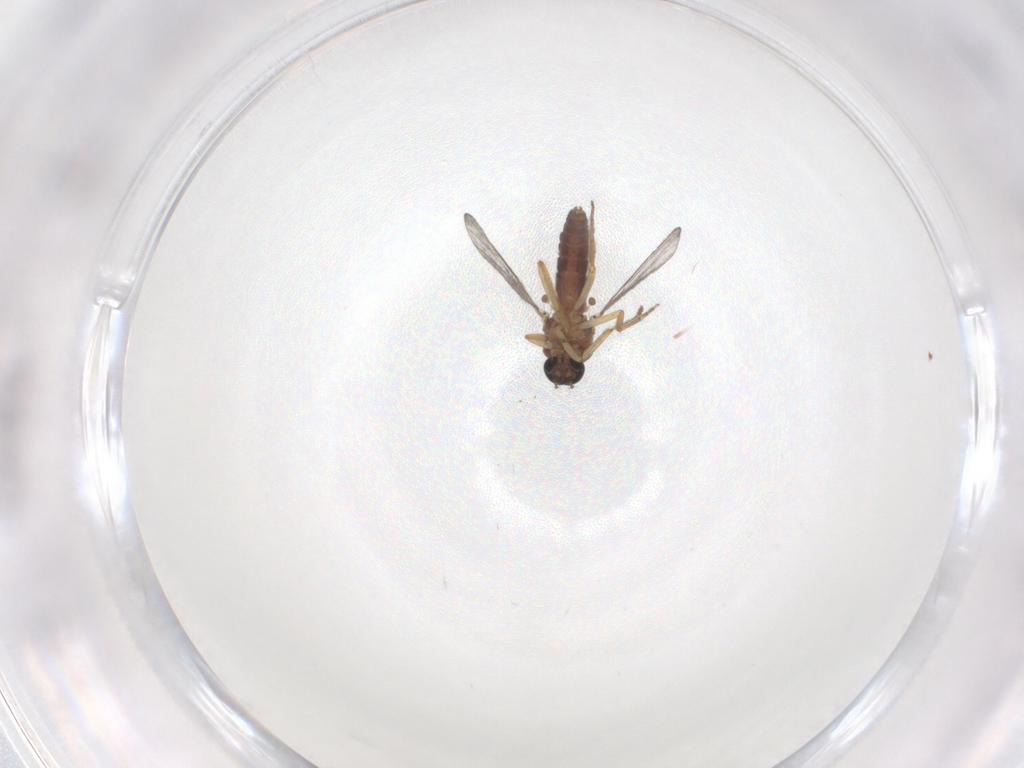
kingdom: Animalia
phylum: Arthropoda
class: Insecta
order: Diptera
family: Ceratopogonidae
